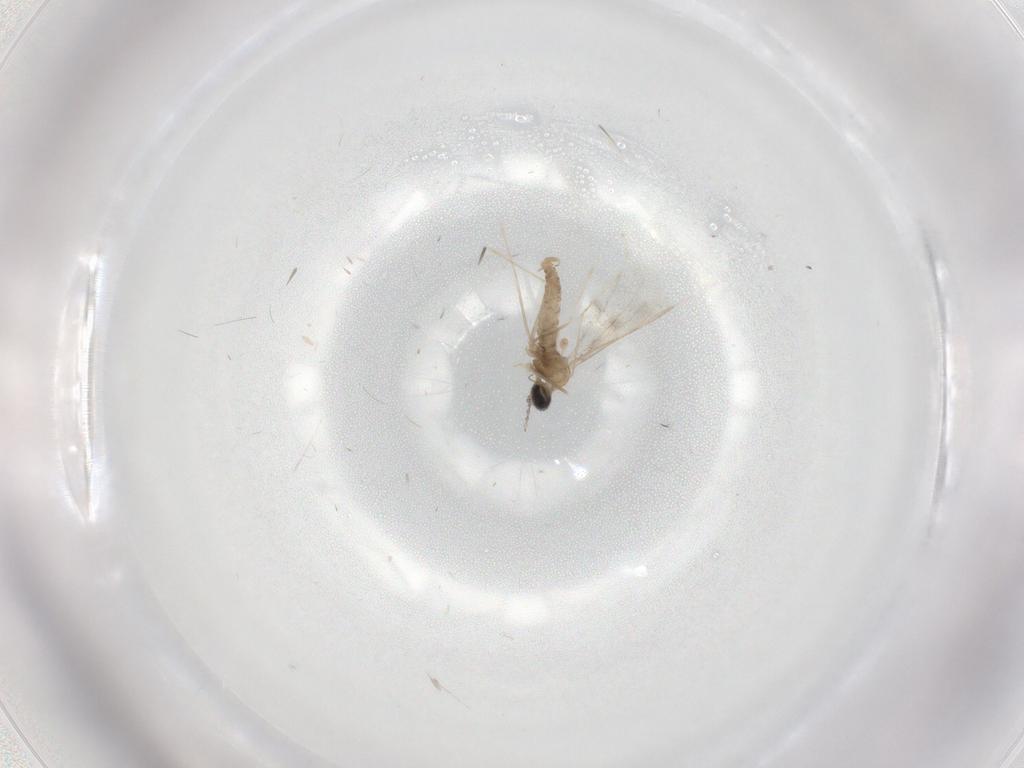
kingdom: Animalia
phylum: Arthropoda
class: Insecta
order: Diptera
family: Cecidomyiidae
